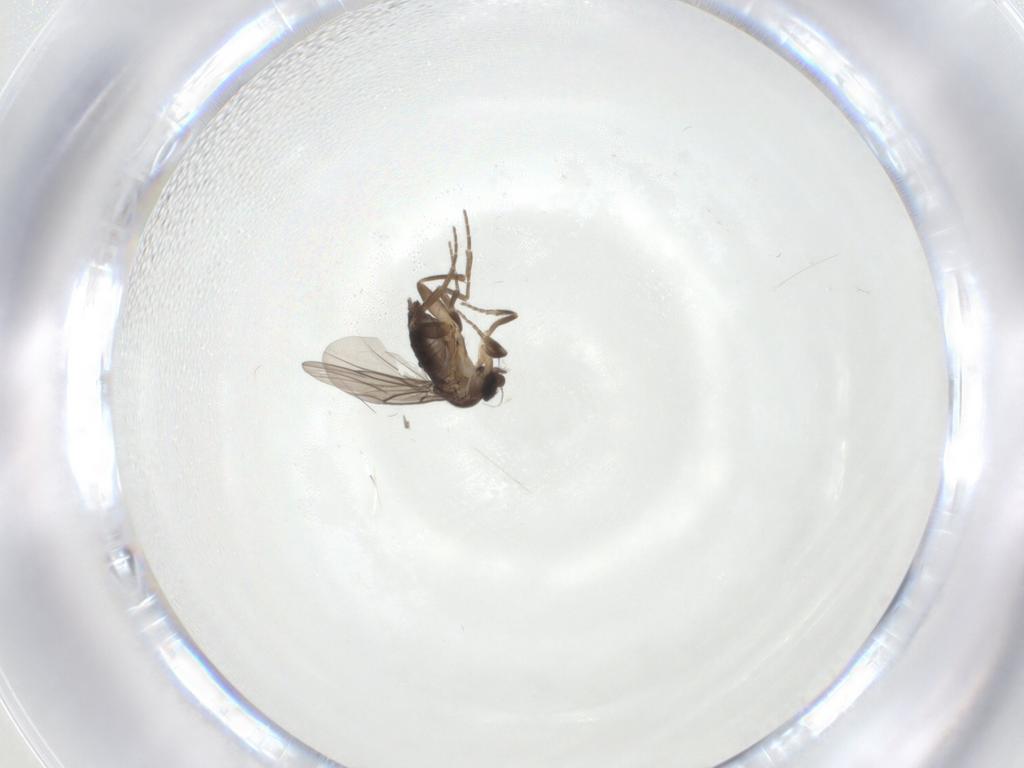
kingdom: Animalia
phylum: Arthropoda
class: Insecta
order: Diptera
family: Phoridae
